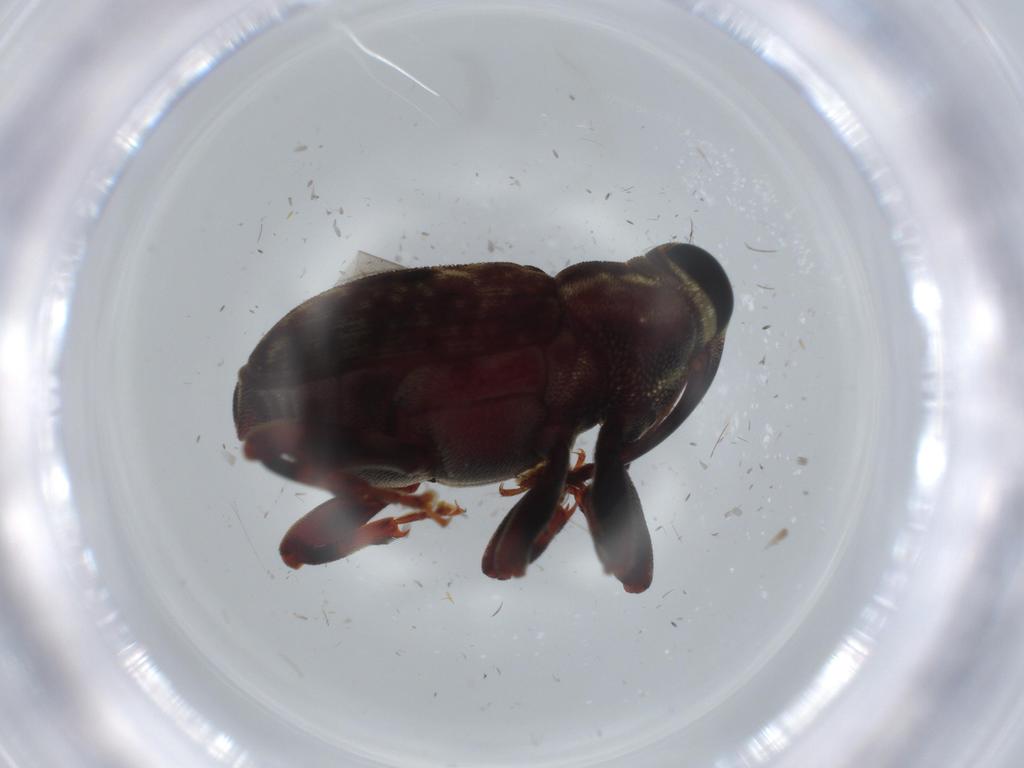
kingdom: Animalia
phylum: Arthropoda
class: Insecta
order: Coleoptera
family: Curculionidae
